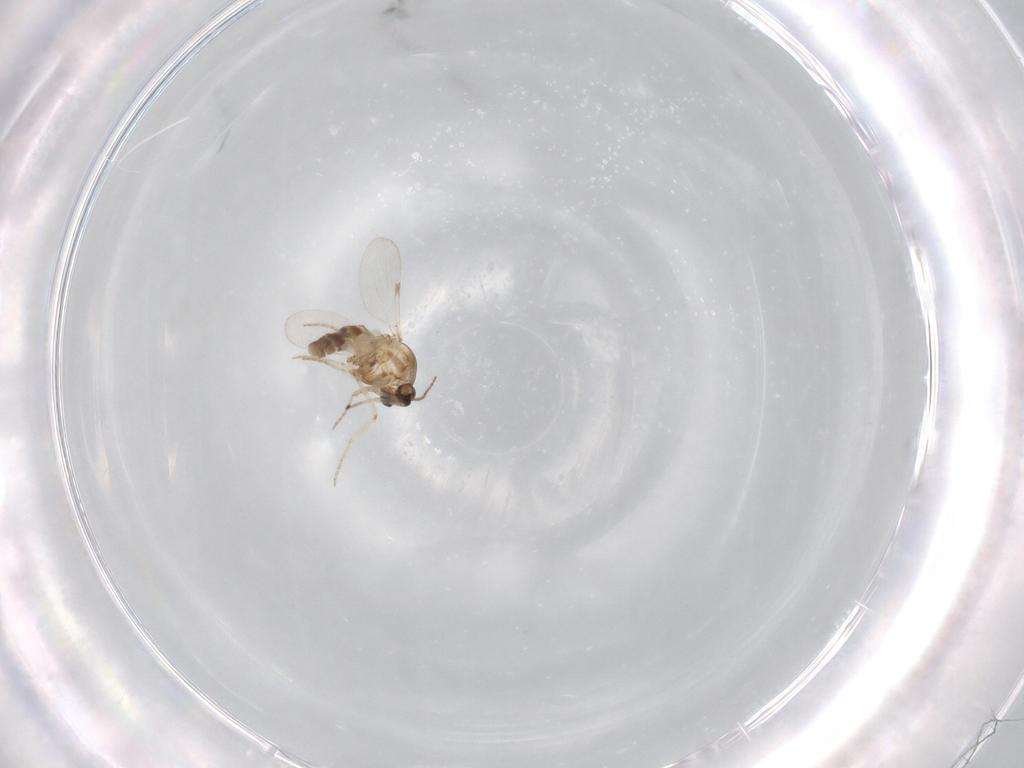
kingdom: Animalia
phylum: Arthropoda
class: Insecta
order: Diptera
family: Ceratopogonidae
